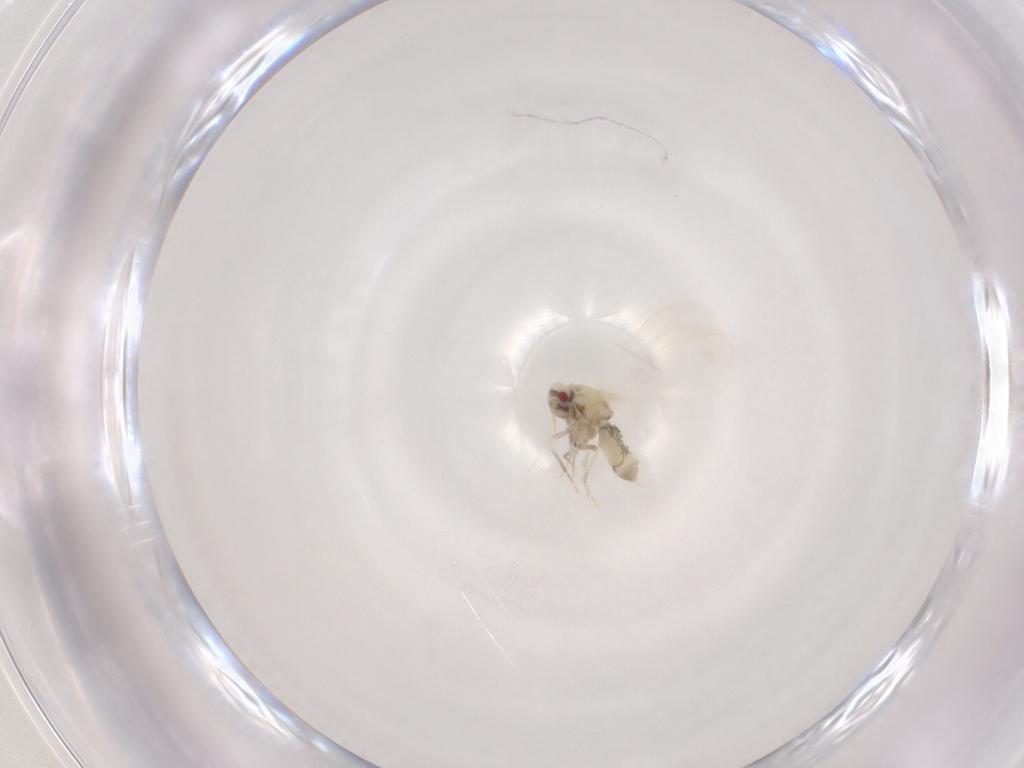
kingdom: Animalia
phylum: Arthropoda
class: Insecta
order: Hemiptera
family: Aleyrodidae
